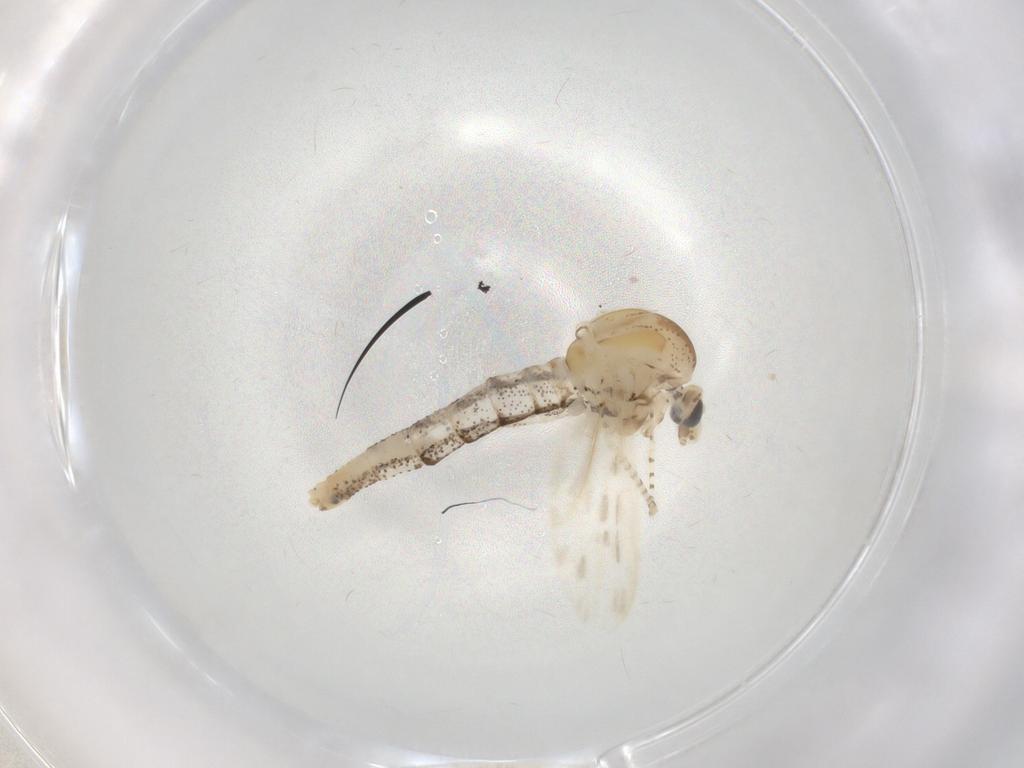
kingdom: Animalia
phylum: Arthropoda
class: Insecta
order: Diptera
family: Chaoboridae
